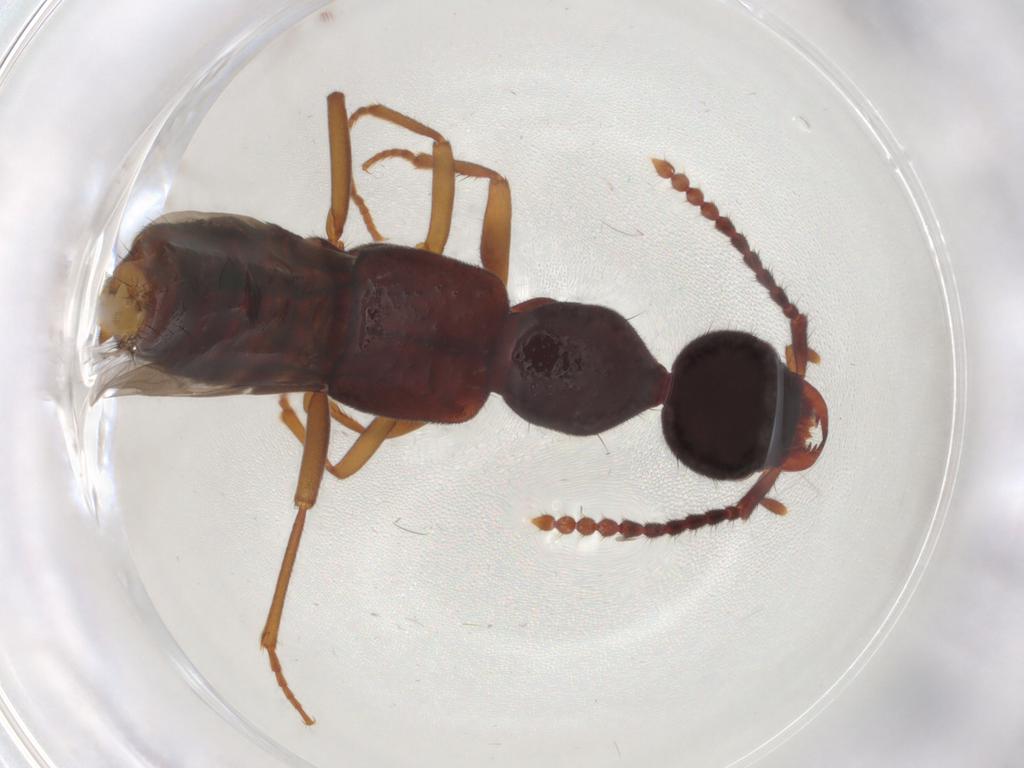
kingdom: Animalia
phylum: Arthropoda
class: Insecta
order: Coleoptera
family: Staphylinidae
